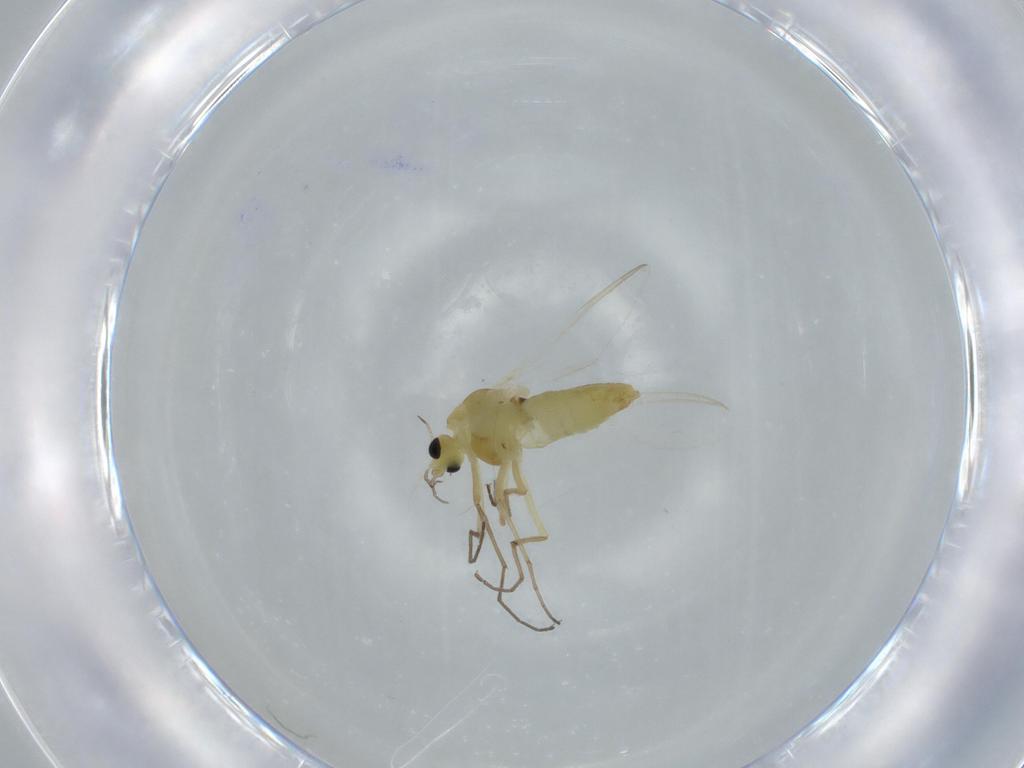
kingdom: Animalia
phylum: Arthropoda
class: Insecta
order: Diptera
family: Chironomidae
